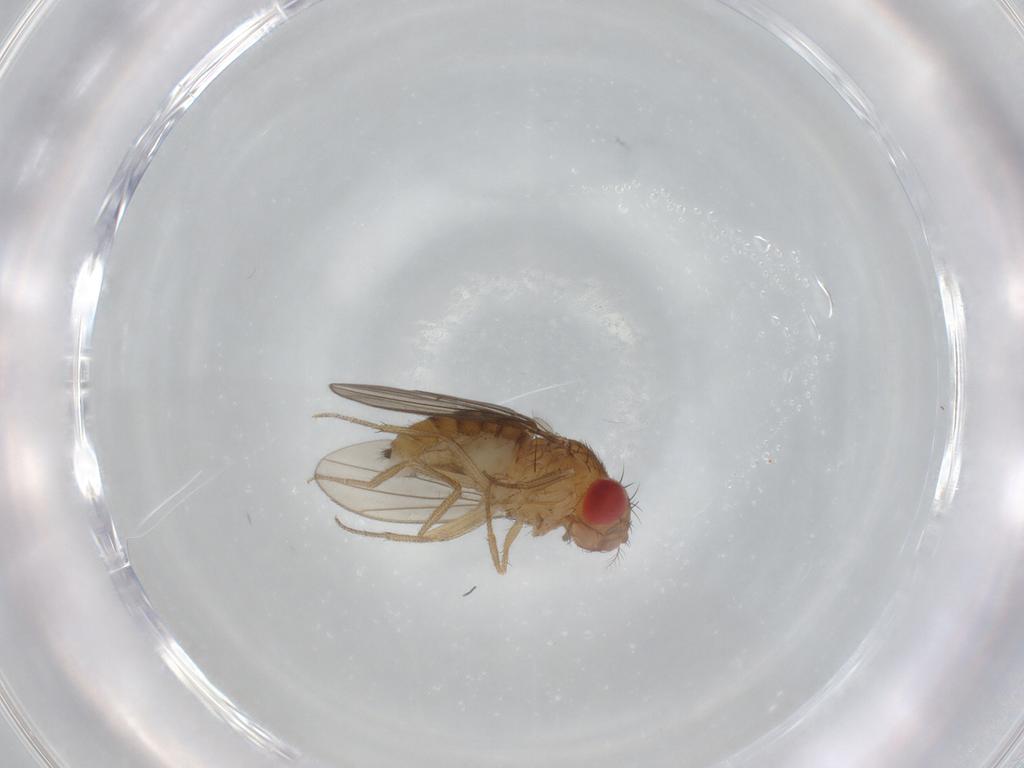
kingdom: Animalia
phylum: Arthropoda
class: Insecta
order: Diptera
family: Drosophilidae
